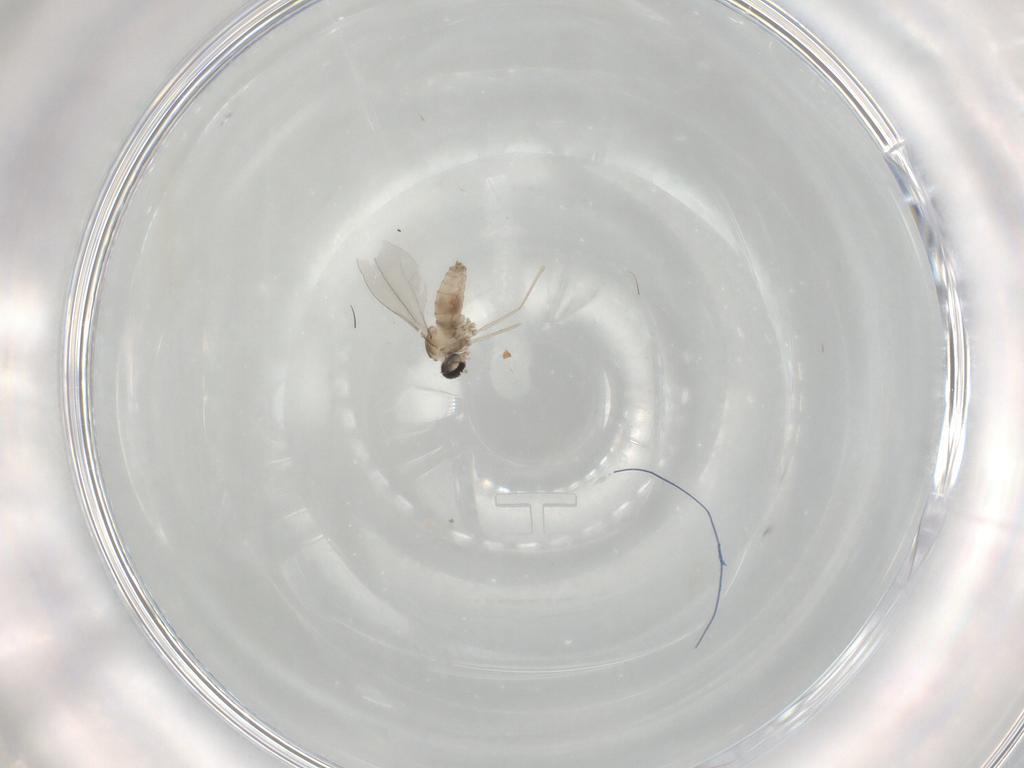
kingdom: Animalia
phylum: Arthropoda
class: Insecta
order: Diptera
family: Cecidomyiidae
